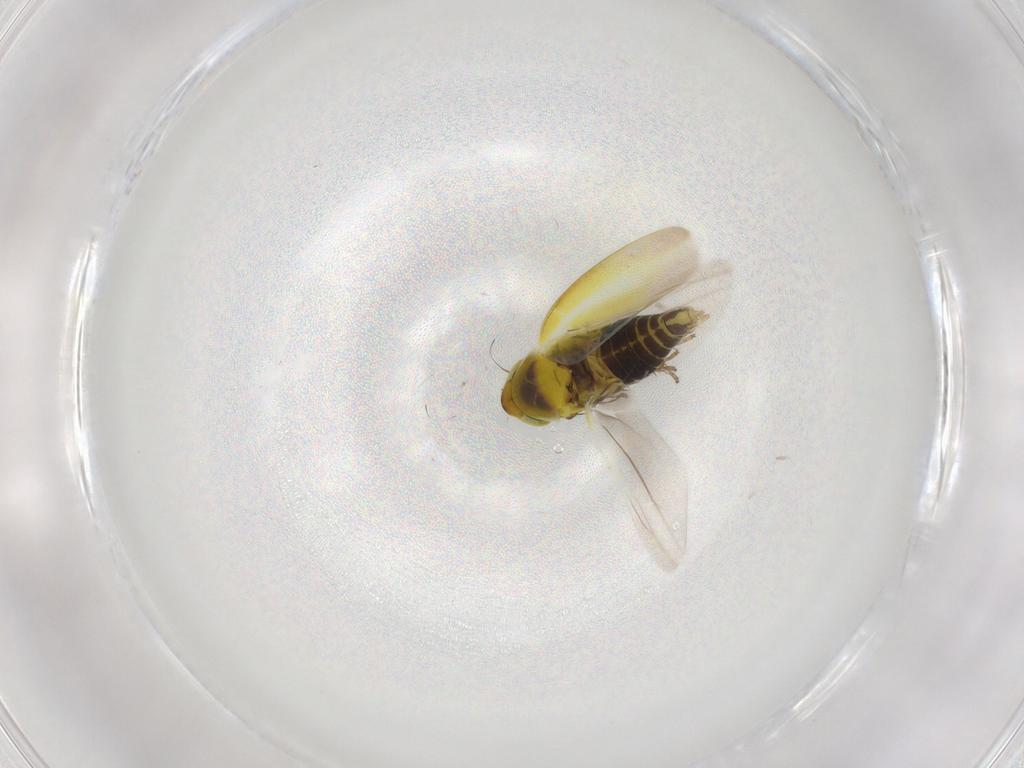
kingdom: Animalia
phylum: Arthropoda
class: Insecta
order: Hemiptera
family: Cicadellidae
